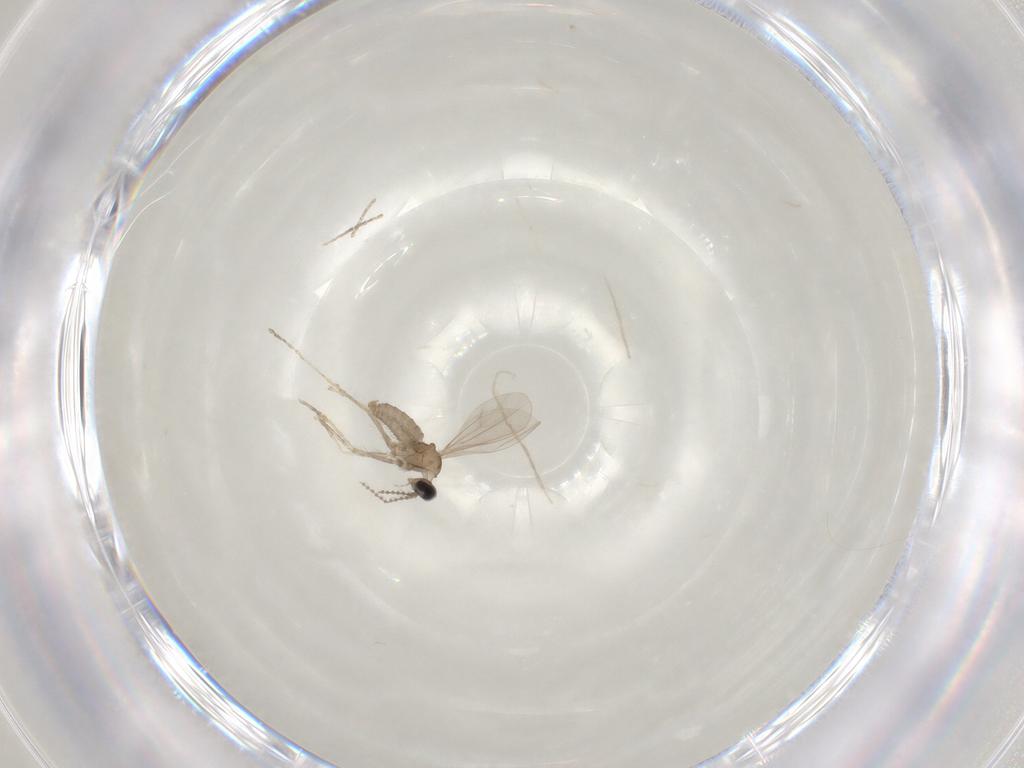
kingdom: Animalia
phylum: Arthropoda
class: Insecta
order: Diptera
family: Cecidomyiidae
